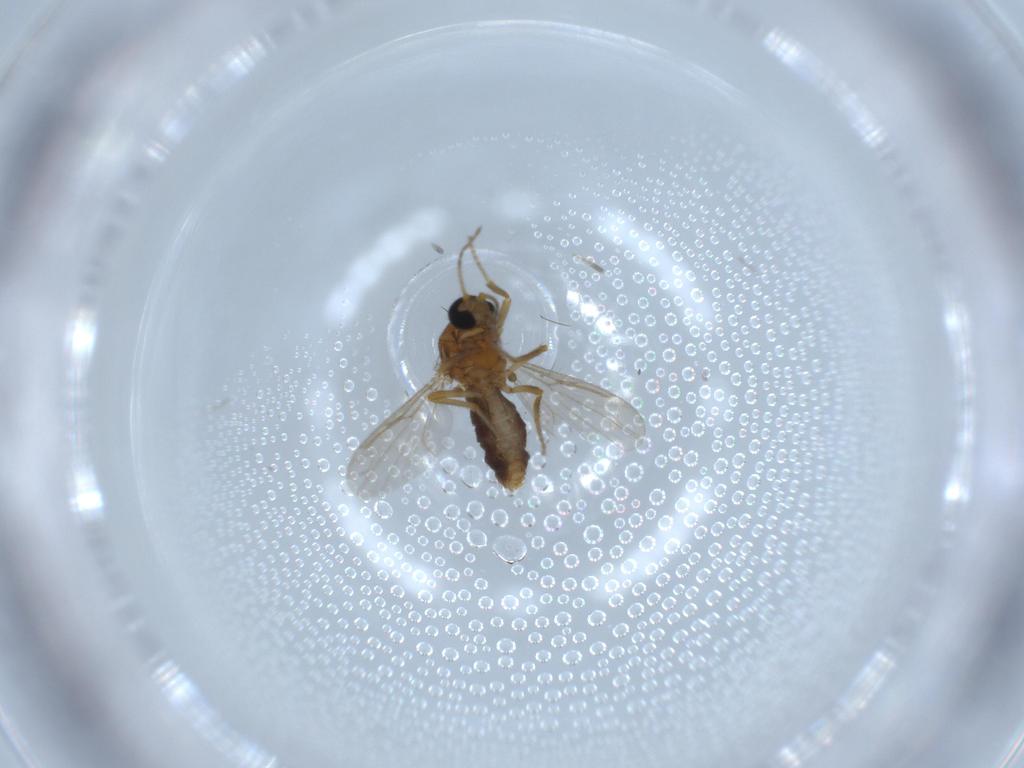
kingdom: Animalia
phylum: Arthropoda
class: Insecta
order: Diptera
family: Ceratopogonidae
